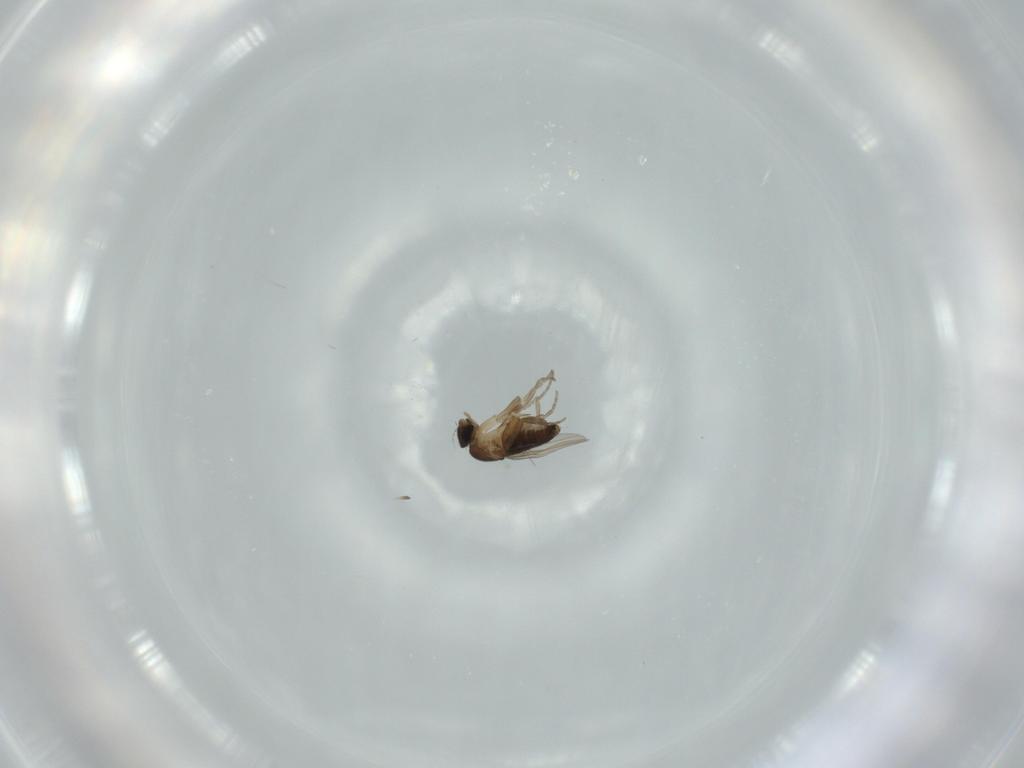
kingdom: Animalia
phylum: Arthropoda
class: Insecta
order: Diptera
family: Phoridae
